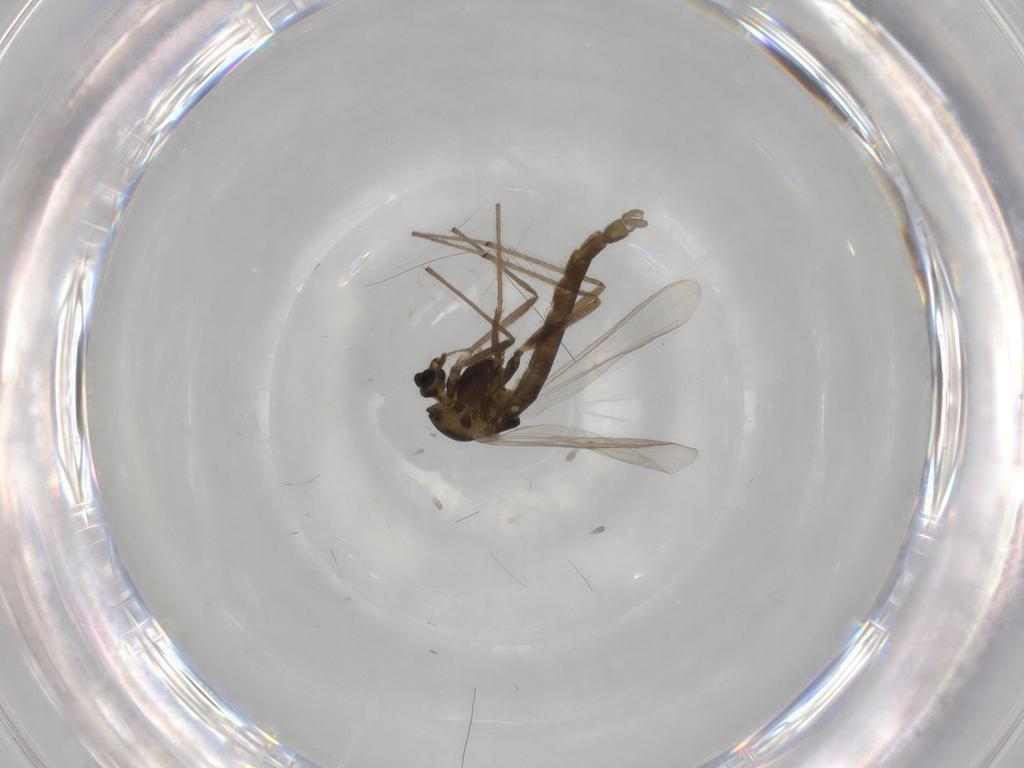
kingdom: Animalia
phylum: Arthropoda
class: Insecta
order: Diptera
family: Chironomidae
